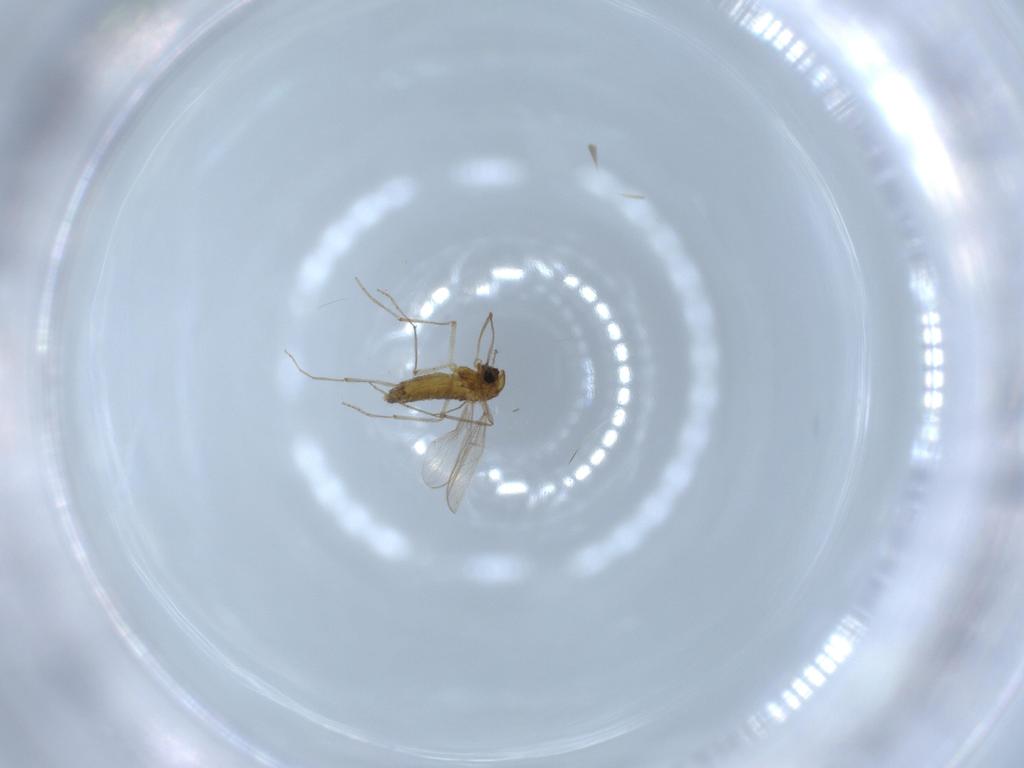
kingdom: Animalia
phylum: Arthropoda
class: Insecta
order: Diptera
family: Chironomidae
